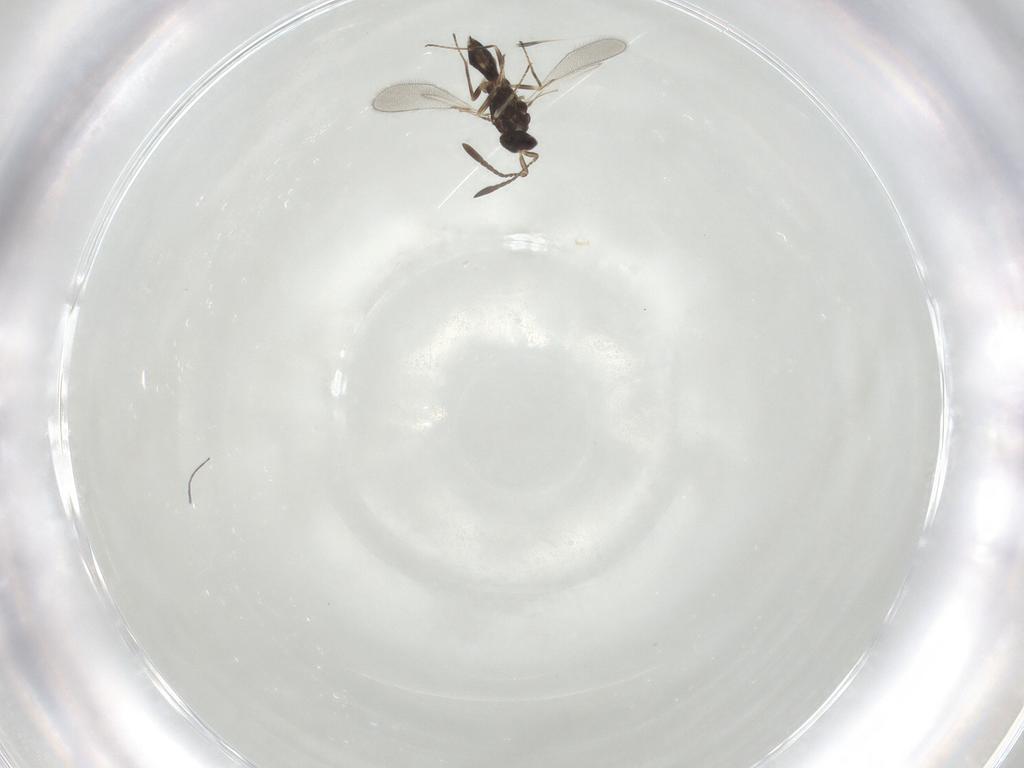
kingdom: Animalia
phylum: Arthropoda
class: Insecta
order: Hymenoptera
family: Mymaridae
